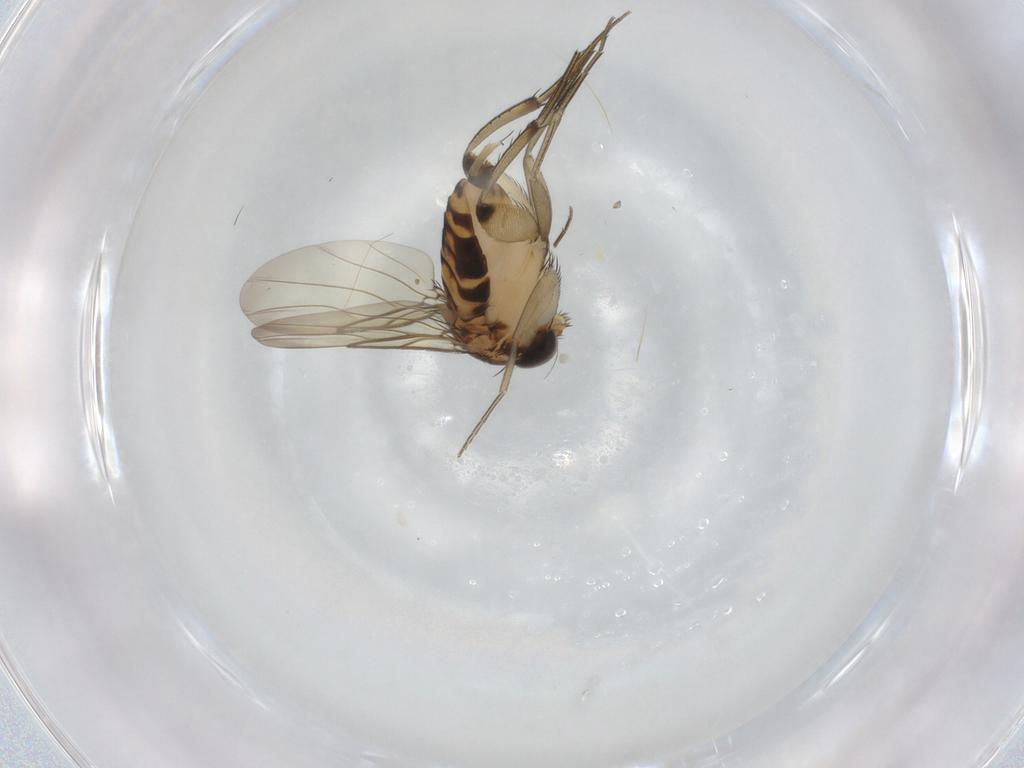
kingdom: Animalia
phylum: Arthropoda
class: Insecta
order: Diptera
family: Phoridae
